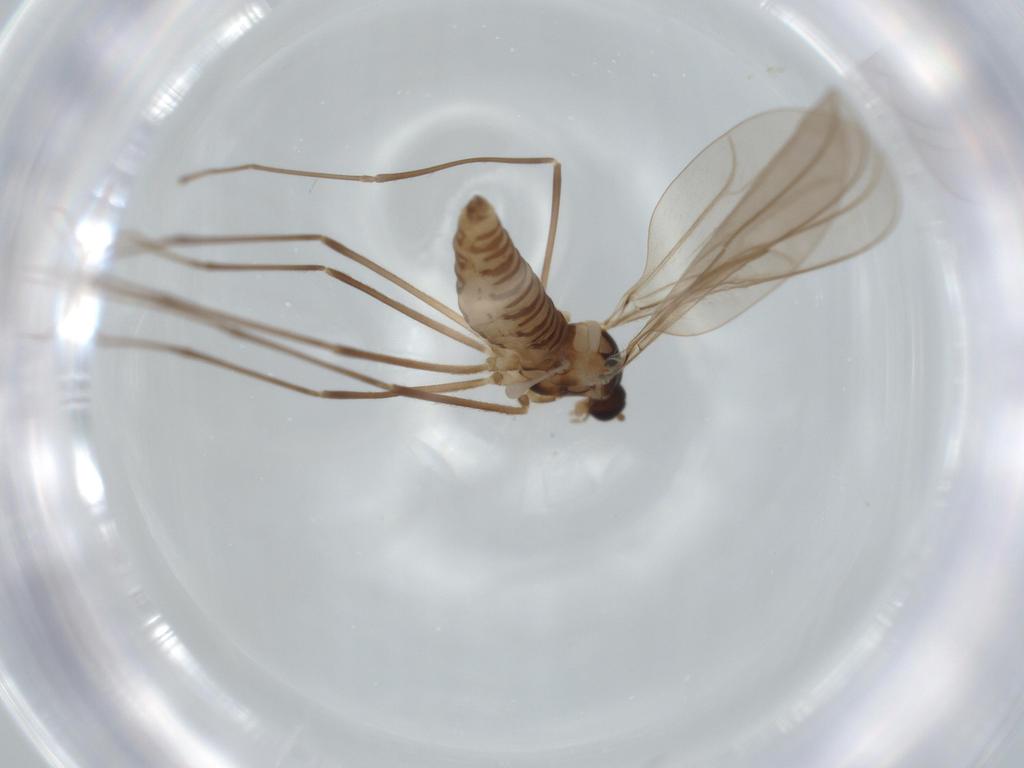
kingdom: Animalia
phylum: Arthropoda
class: Insecta
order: Diptera
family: Cecidomyiidae
